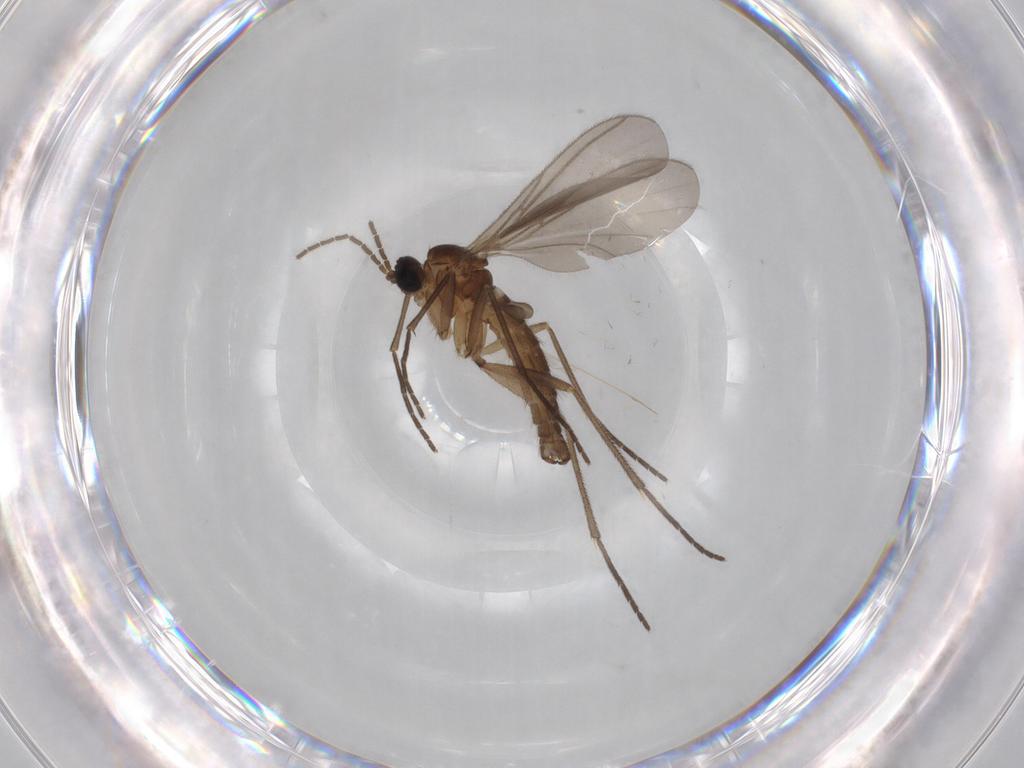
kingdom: Animalia
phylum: Arthropoda
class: Insecta
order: Diptera
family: Sciaridae
